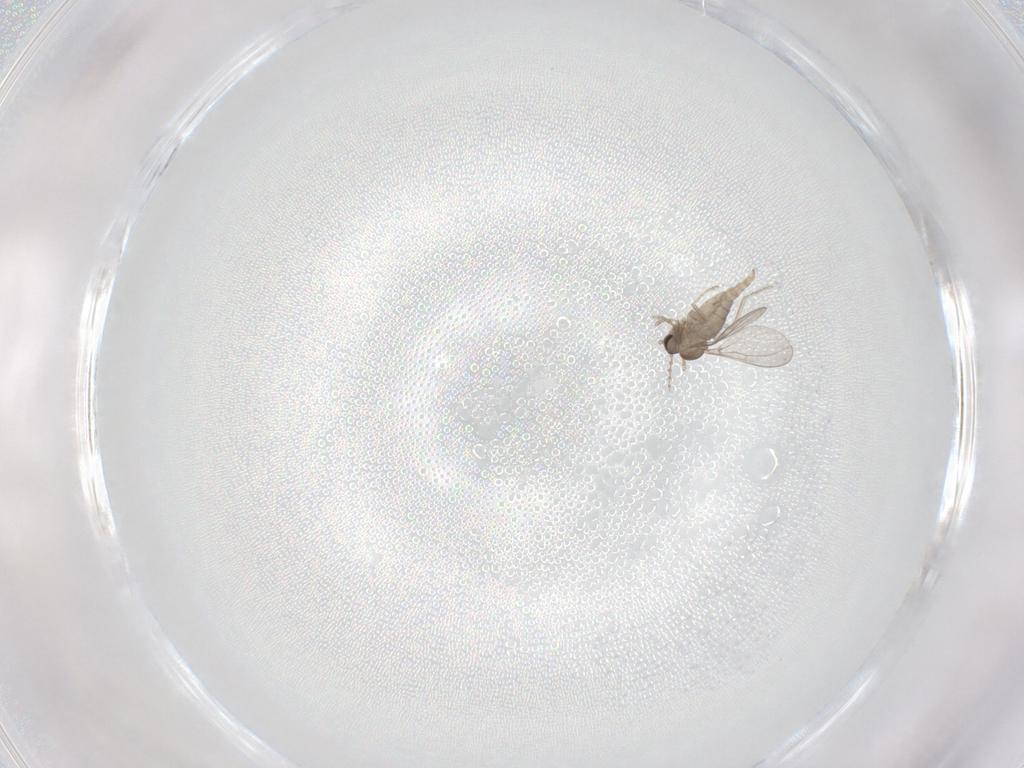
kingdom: Animalia
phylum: Arthropoda
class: Insecta
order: Diptera
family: Cecidomyiidae
